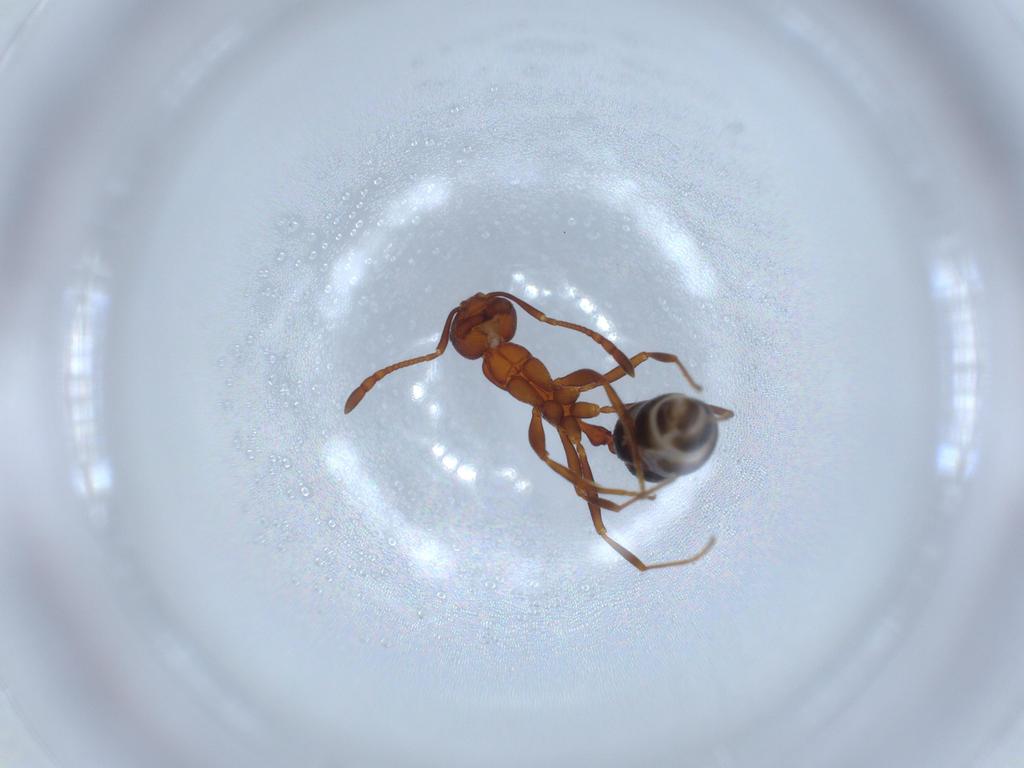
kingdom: Animalia
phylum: Arthropoda
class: Insecta
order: Hymenoptera
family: Formicidae
